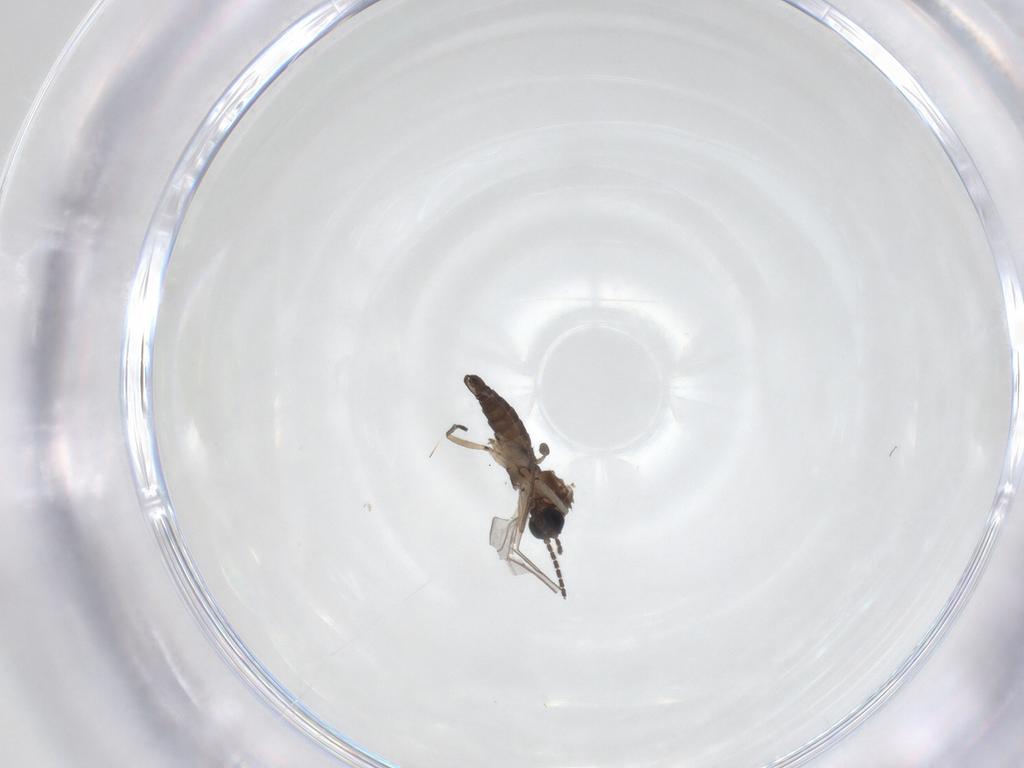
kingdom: Animalia
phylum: Arthropoda
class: Insecta
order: Diptera
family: Sciaridae
